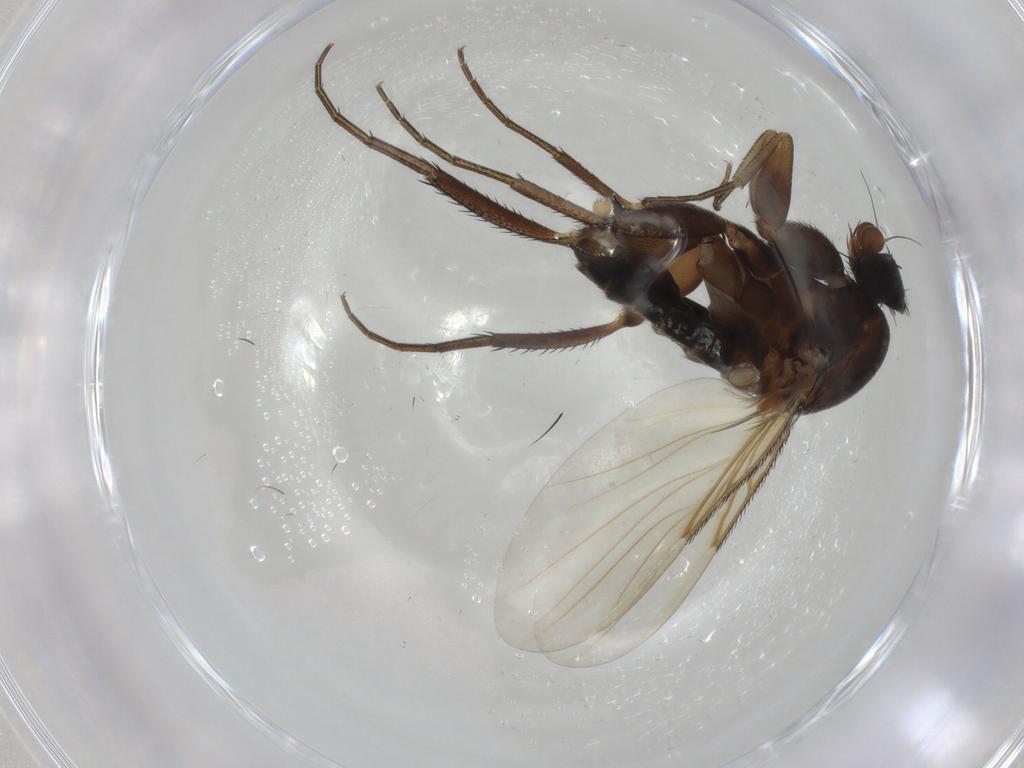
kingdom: Animalia
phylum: Arthropoda
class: Insecta
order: Diptera
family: Phoridae
